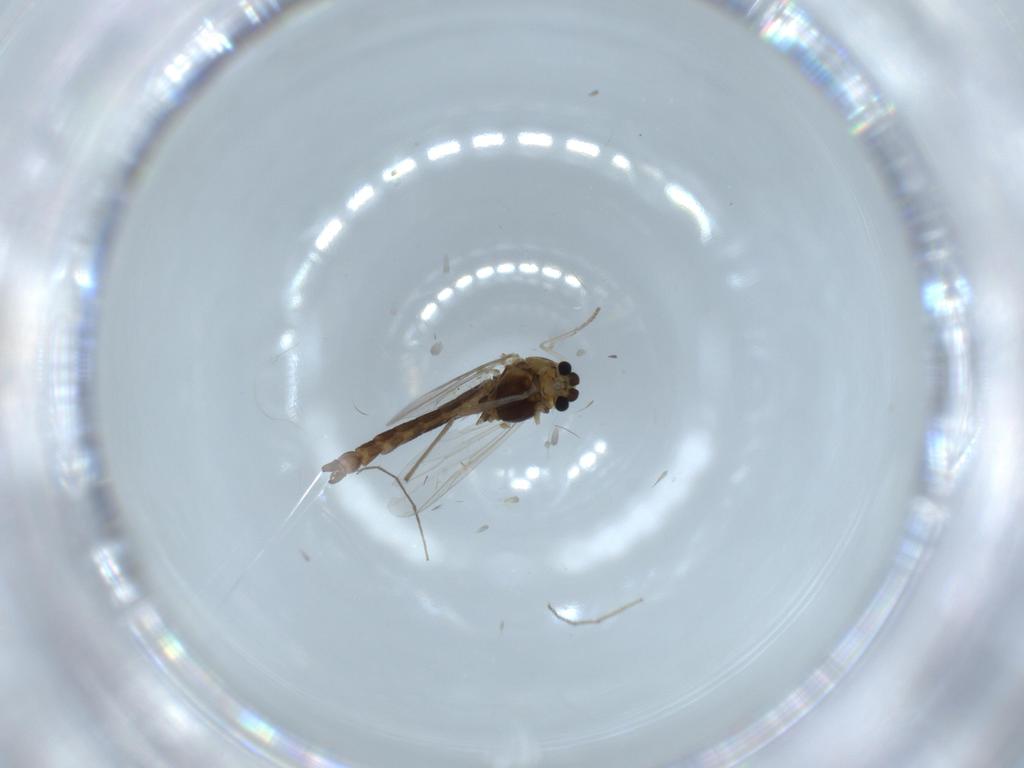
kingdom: Animalia
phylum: Arthropoda
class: Insecta
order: Diptera
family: Chironomidae
